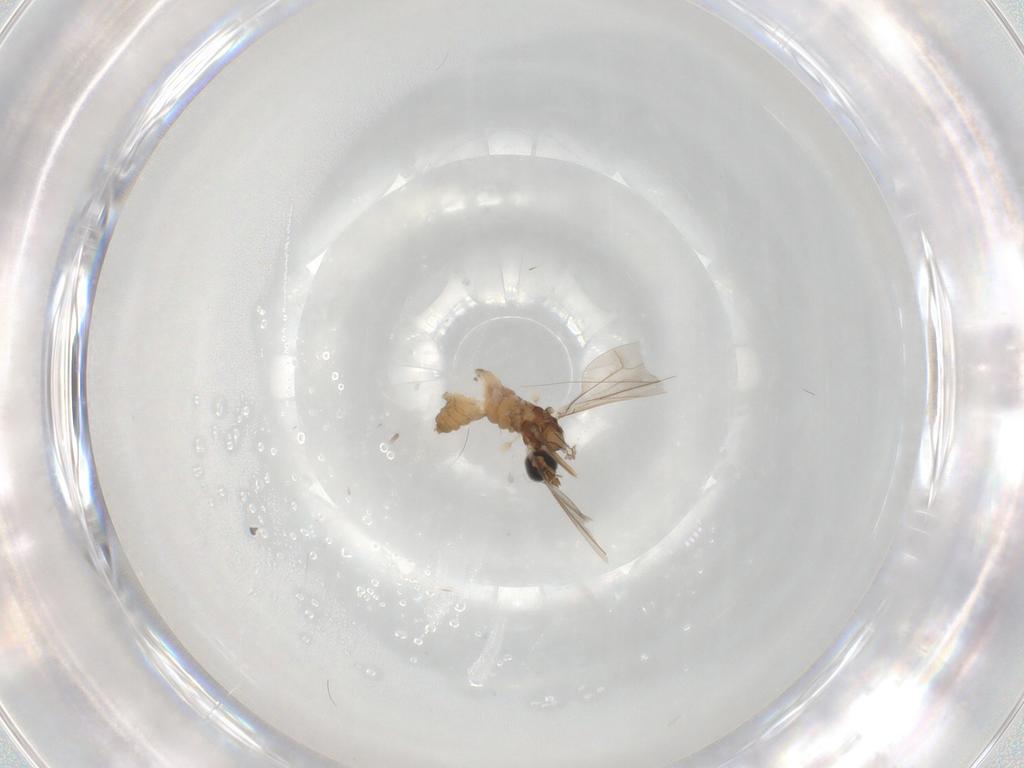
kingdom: Animalia
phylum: Arthropoda
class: Insecta
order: Diptera
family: Cecidomyiidae
